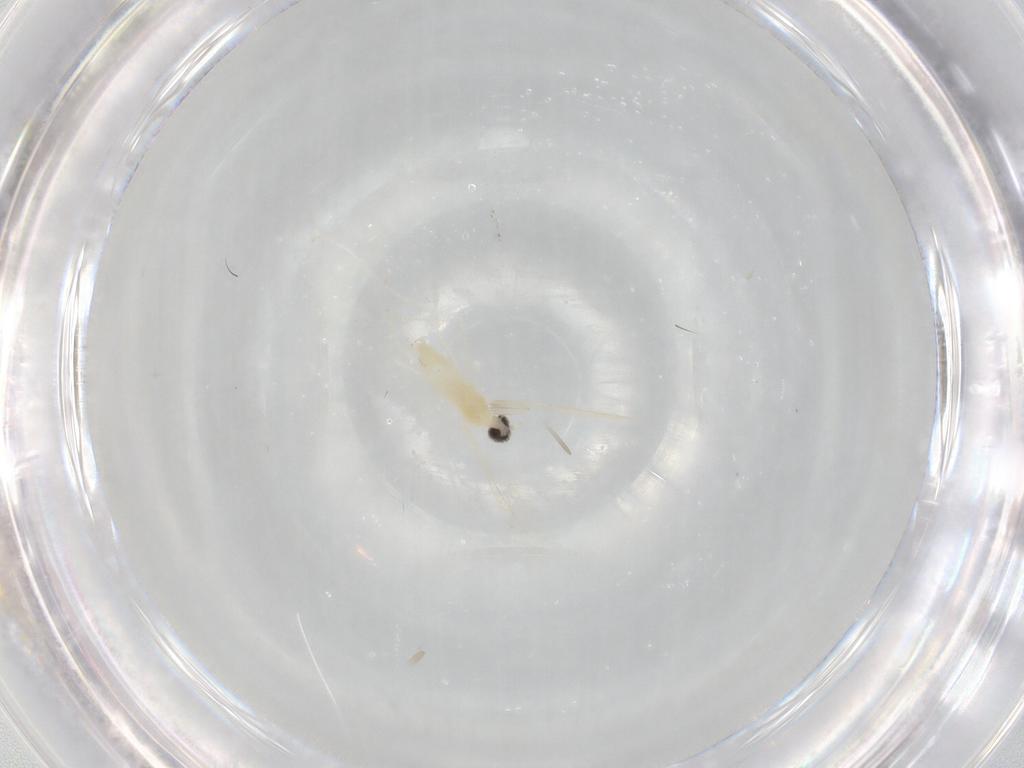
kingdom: Animalia
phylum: Arthropoda
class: Insecta
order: Diptera
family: Cecidomyiidae
